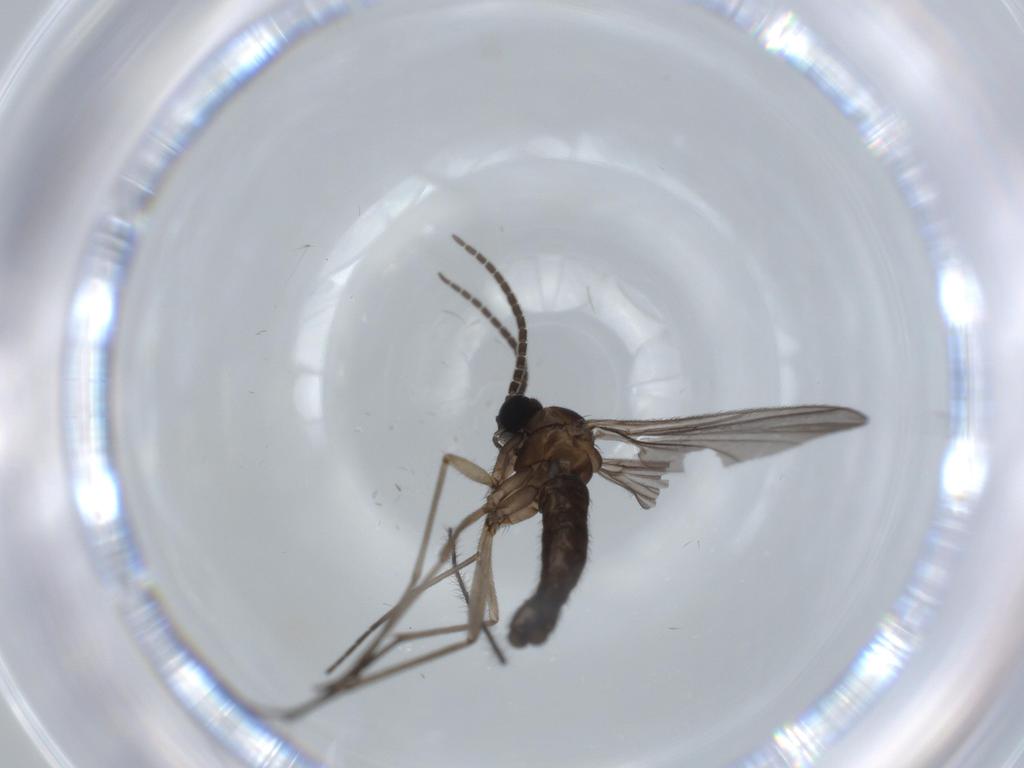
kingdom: Animalia
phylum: Arthropoda
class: Insecta
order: Diptera
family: Sciaridae
